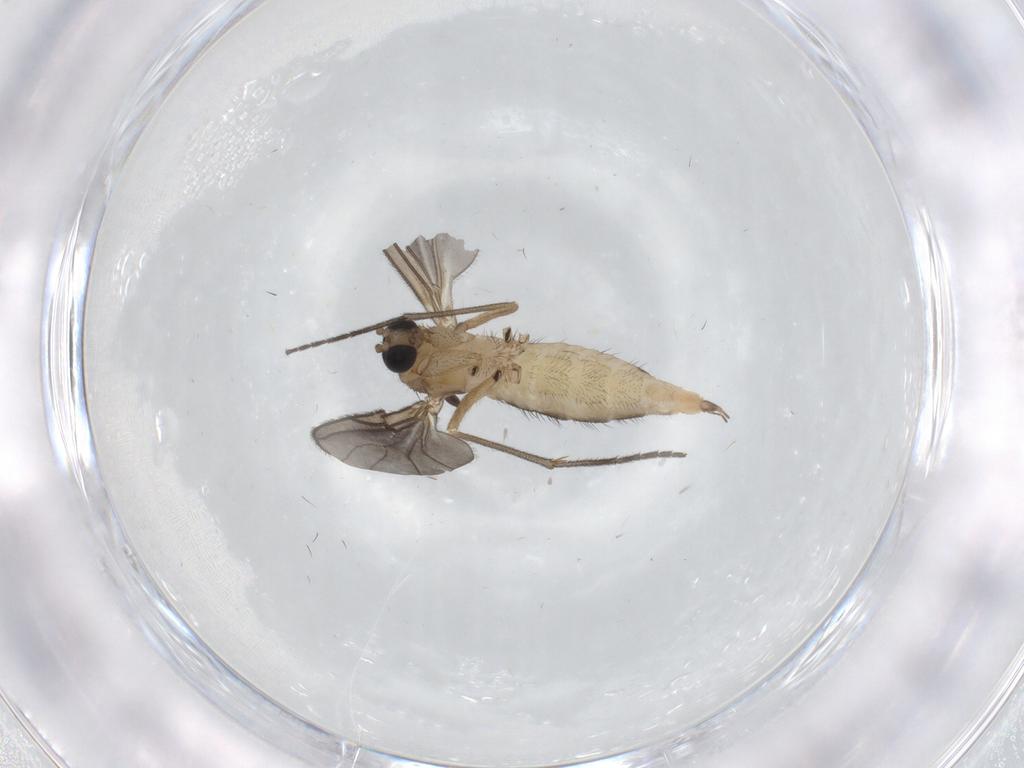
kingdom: Animalia
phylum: Arthropoda
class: Insecta
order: Diptera
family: Sciaridae
